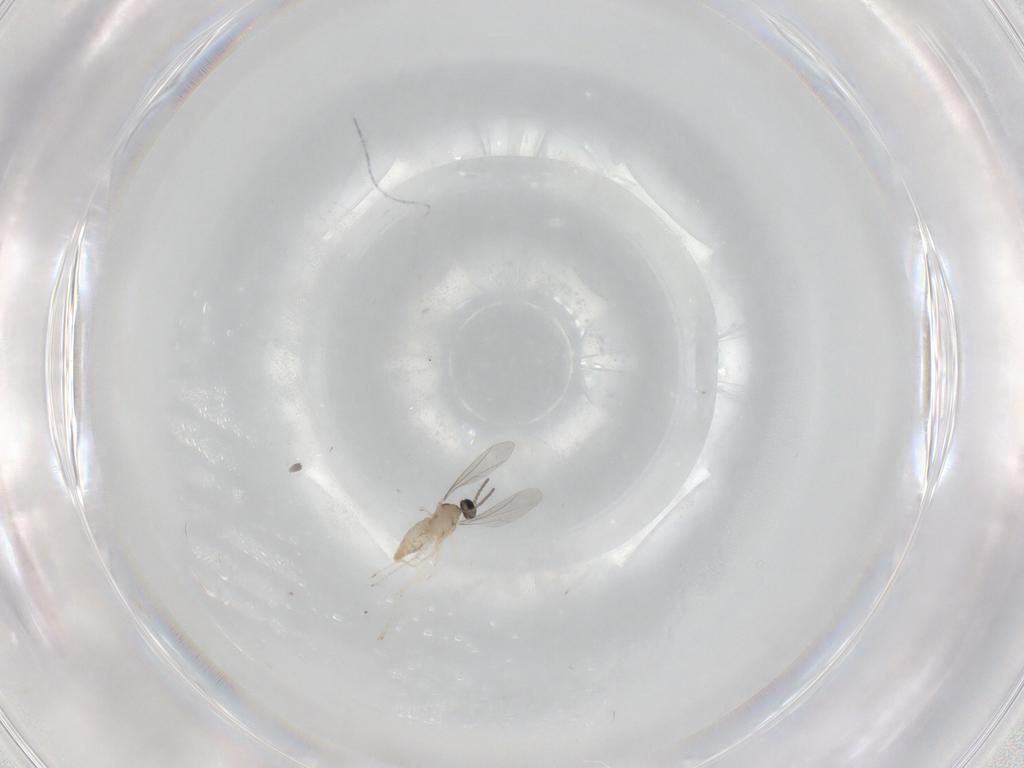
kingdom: Animalia
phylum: Arthropoda
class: Insecta
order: Diptera
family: Cecidomyiidae
